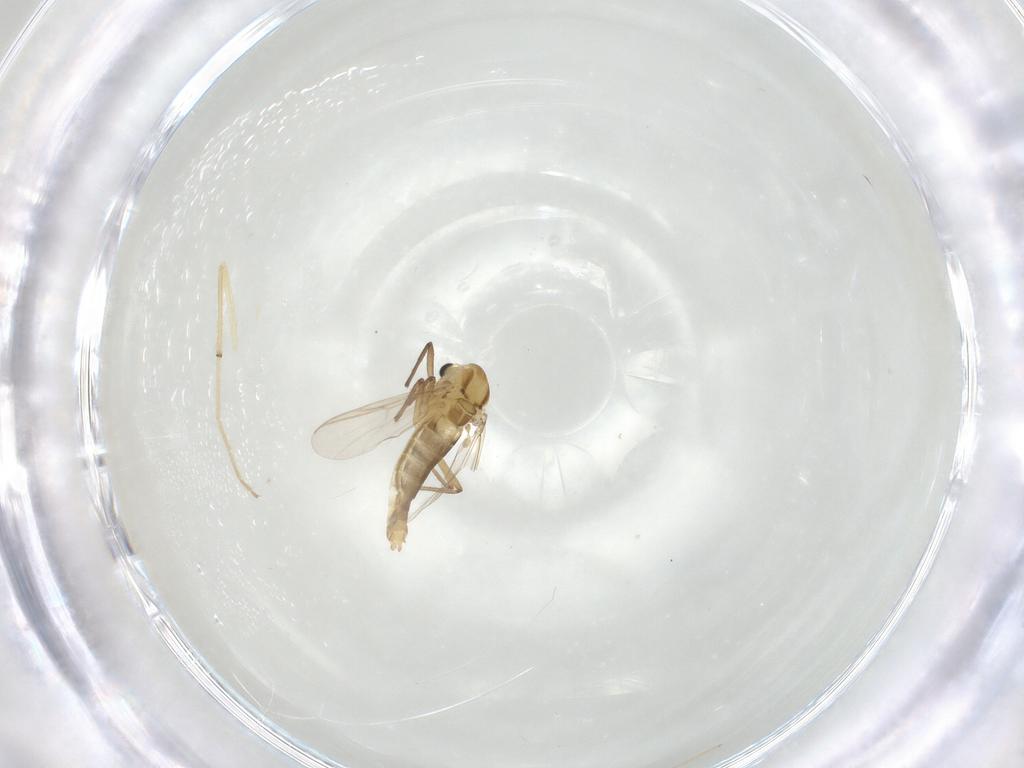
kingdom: Animalia
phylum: Arthropoda
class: Insecta
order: Diptera
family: Chironomidae
